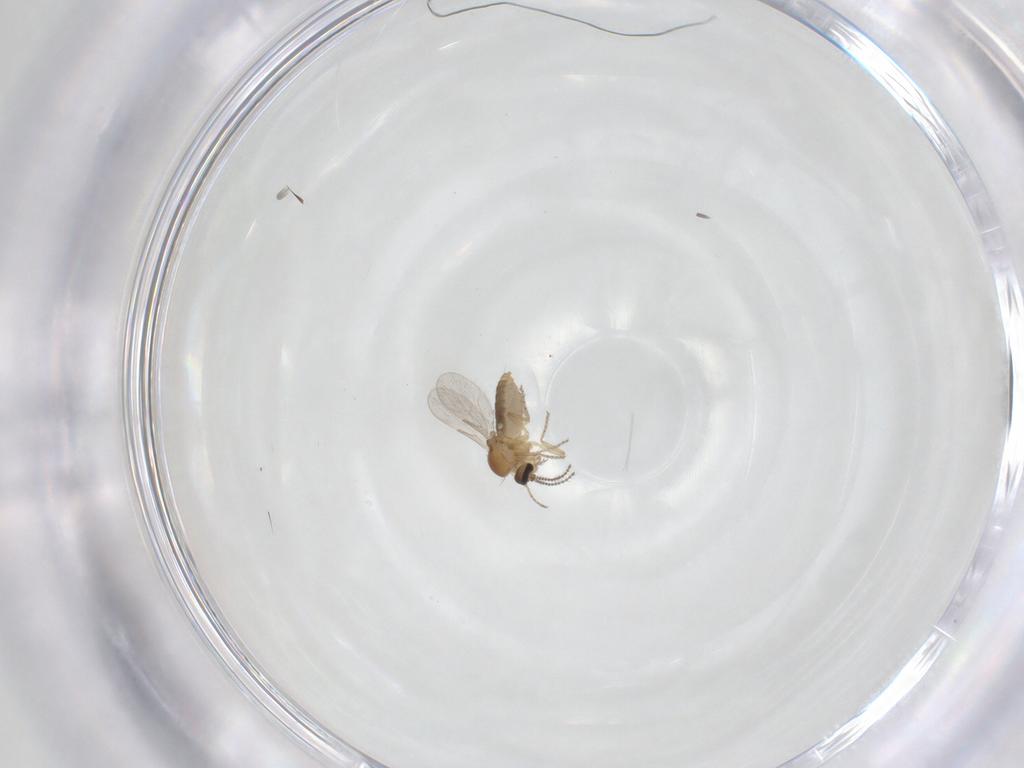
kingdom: Animalia
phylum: Arthropoda
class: Insecta
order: Diptera
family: Ceratopogonidae
